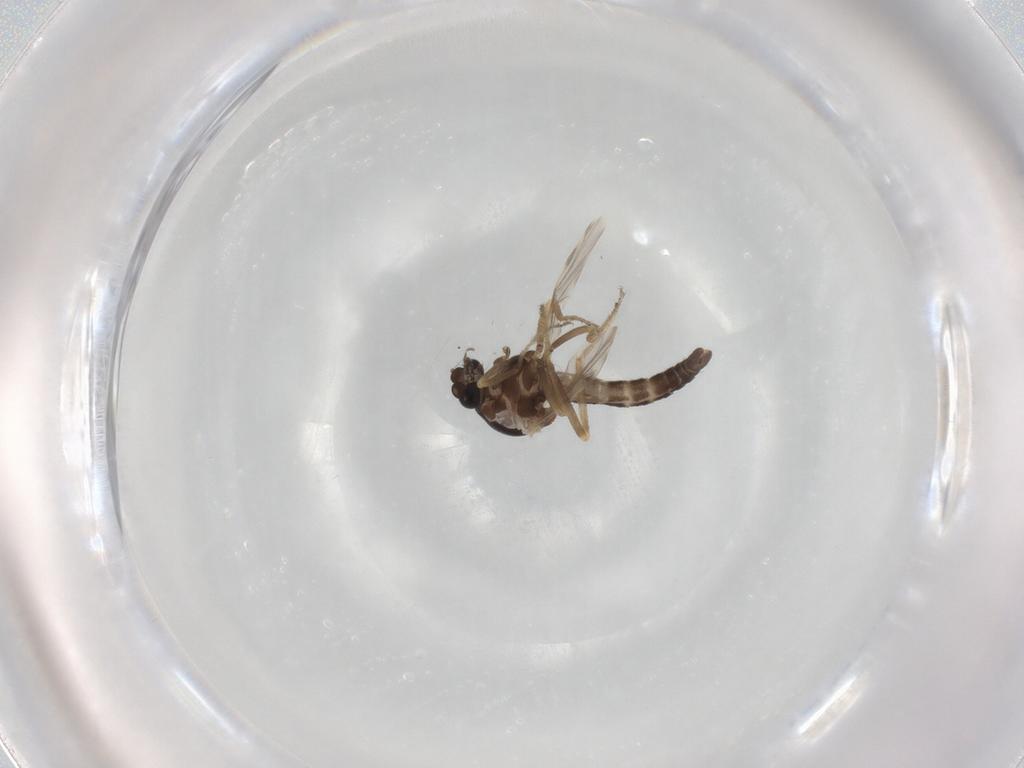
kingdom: Animalia
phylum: Arthropoda
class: Insecta
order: Diptera
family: Ceratopogonidae
